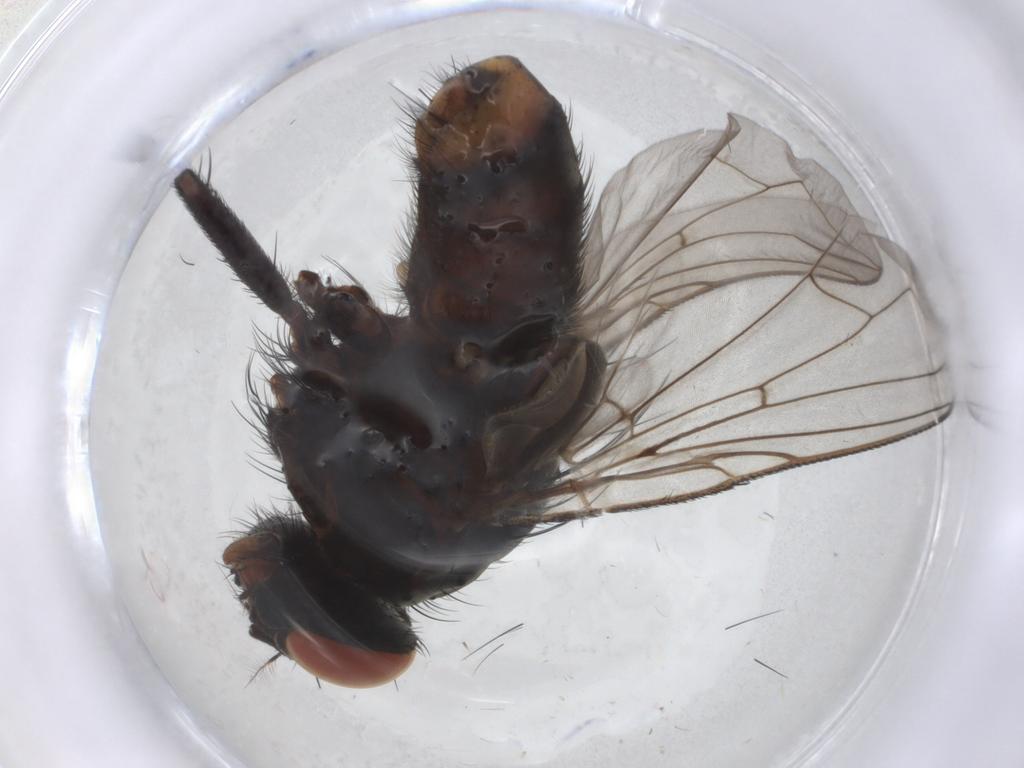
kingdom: Animalia
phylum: Arthropoda
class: Insecta
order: Diptera
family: Sarcophagidae
